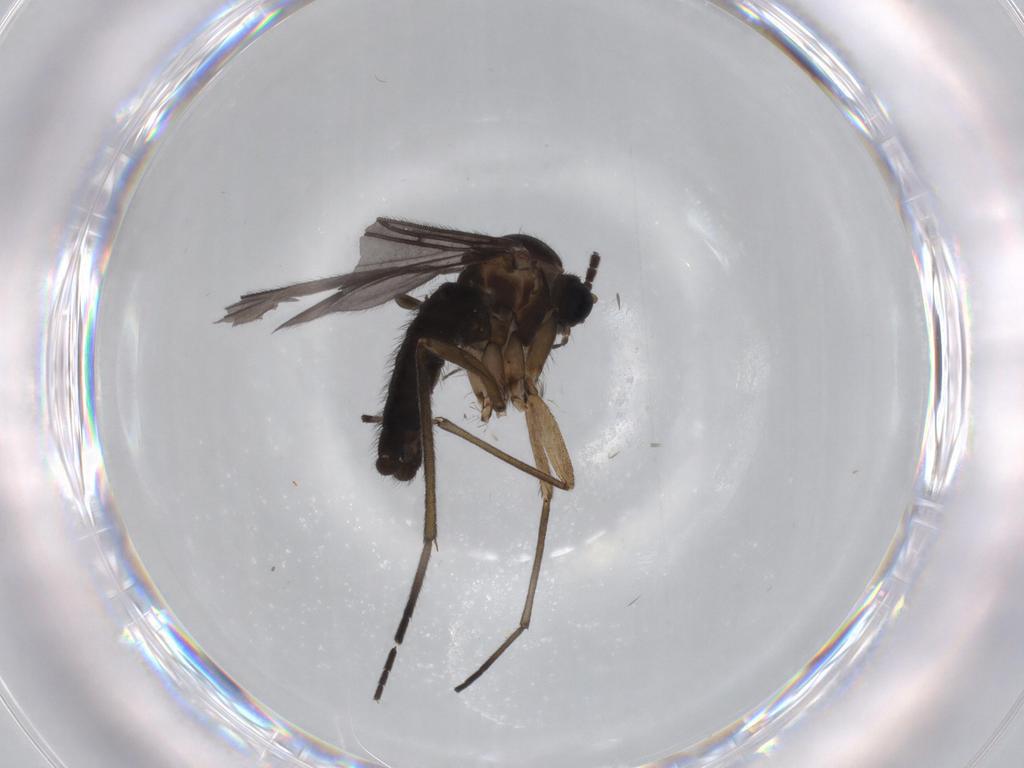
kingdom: Animalia
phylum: Arthropoda
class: Insecta
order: Diptera
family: Sciaridae
